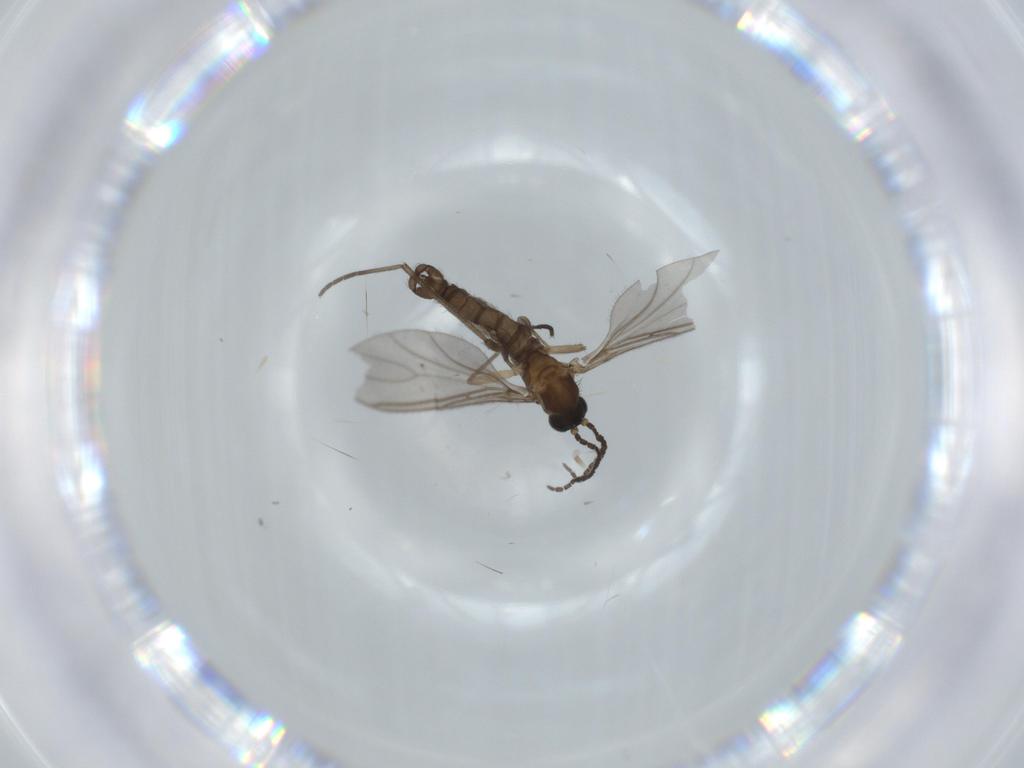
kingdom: Animalia
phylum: Arthropoda
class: Insecta
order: Diptera
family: Sciaridae
